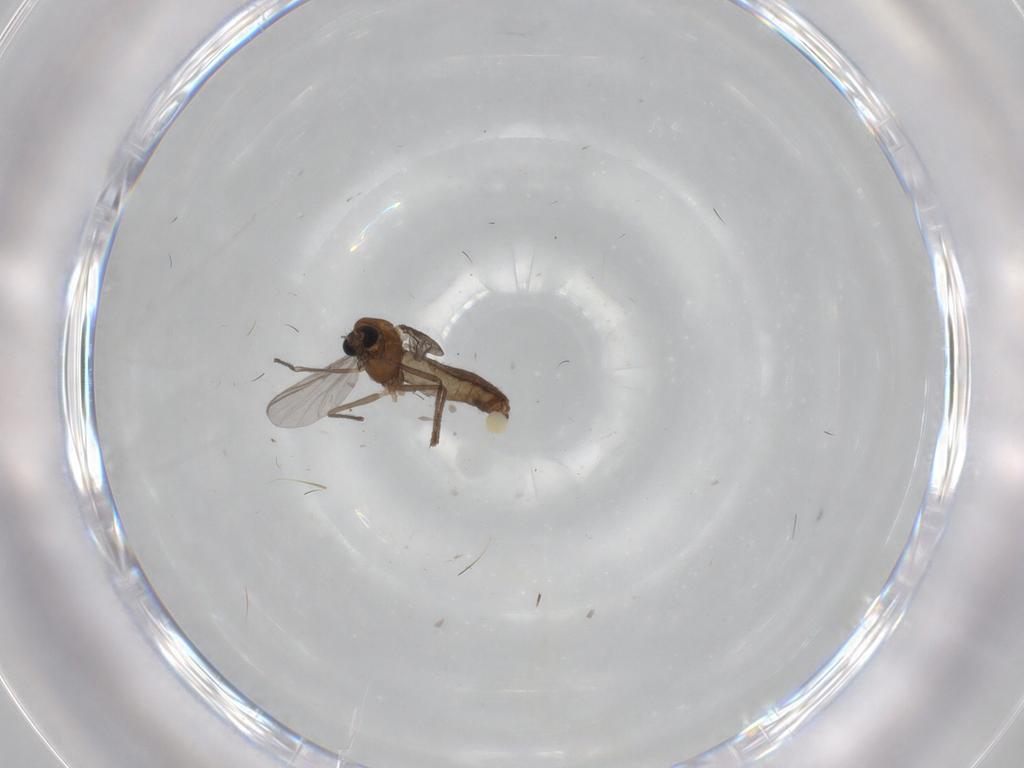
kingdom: Animalia
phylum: Arthropoda
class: Insecta
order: Diptera
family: Chironomidae
